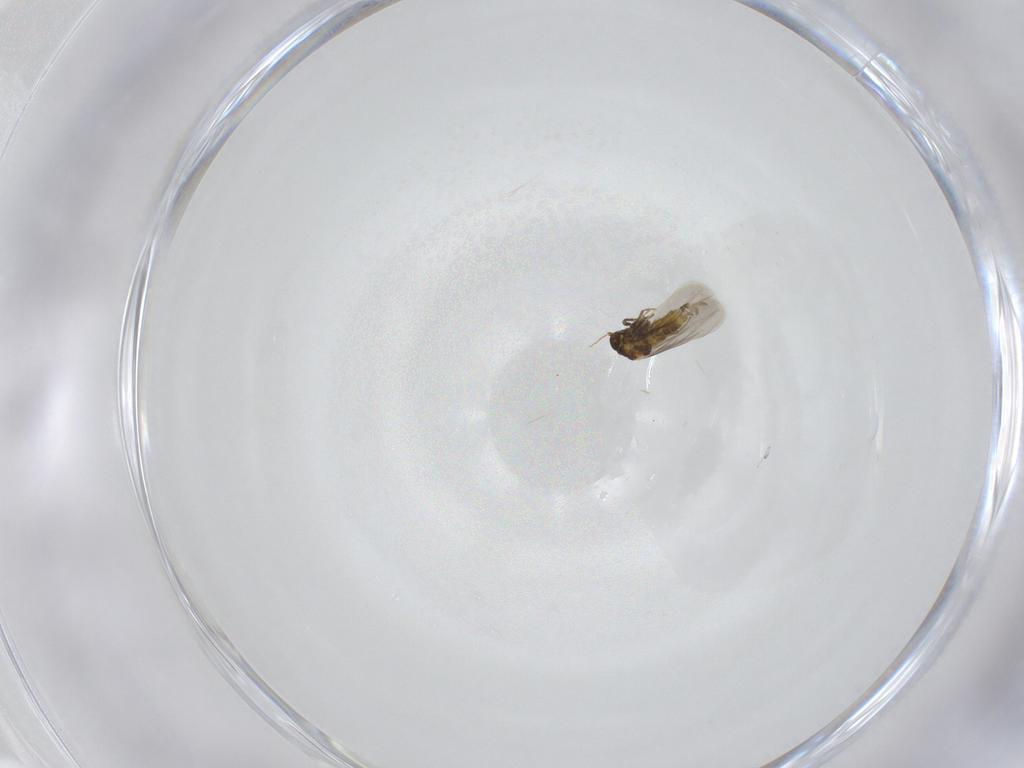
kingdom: Animalia
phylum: Arthropoda
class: Insecta
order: Hemiptera
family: Aleyrodidae
